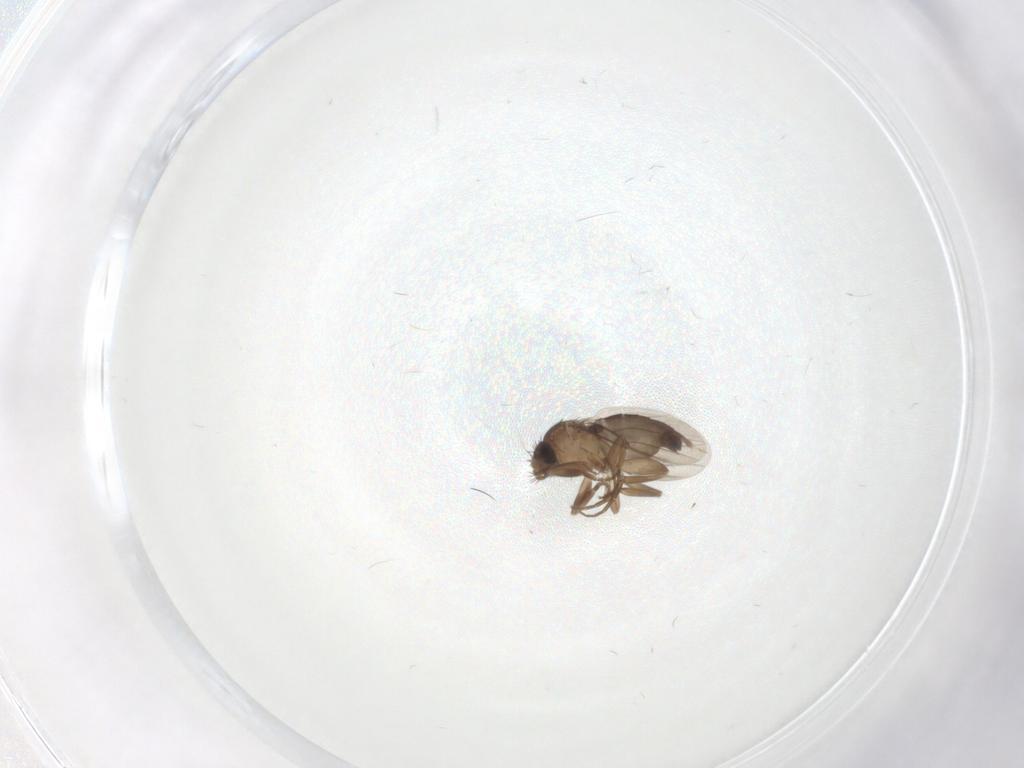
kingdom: Animalia
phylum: Arthropoda
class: Insecta
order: Diptera
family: Phoridae
